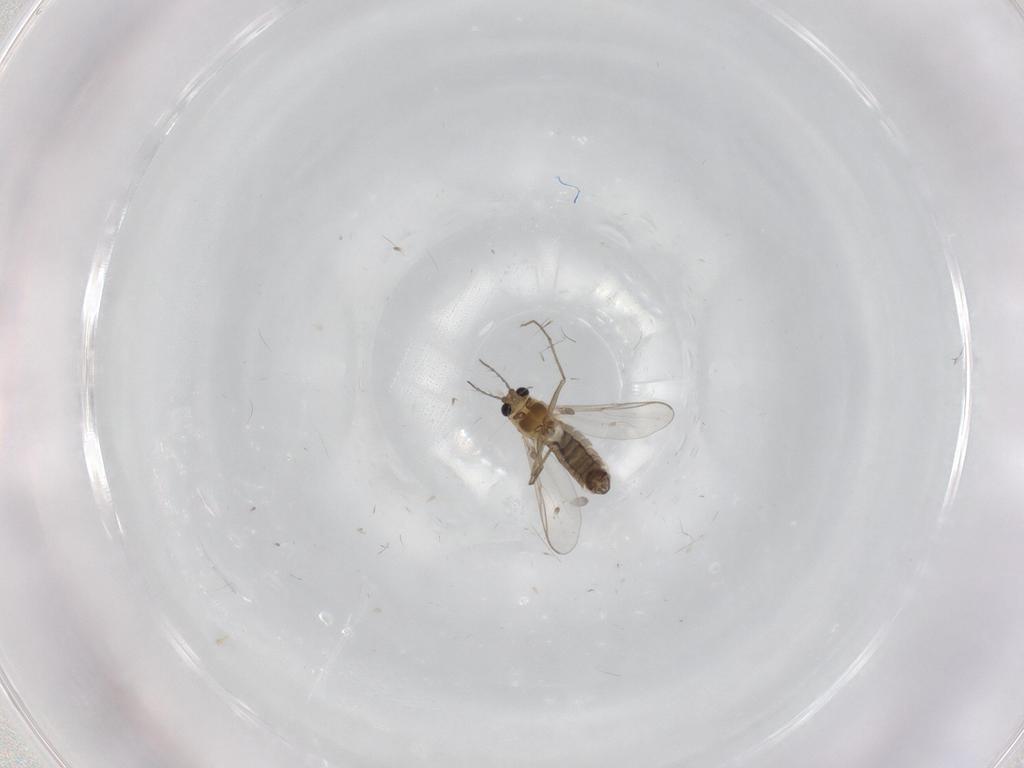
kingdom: Animalia
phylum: Arthropoda
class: Insecta
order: Diptera
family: Chironomidae
